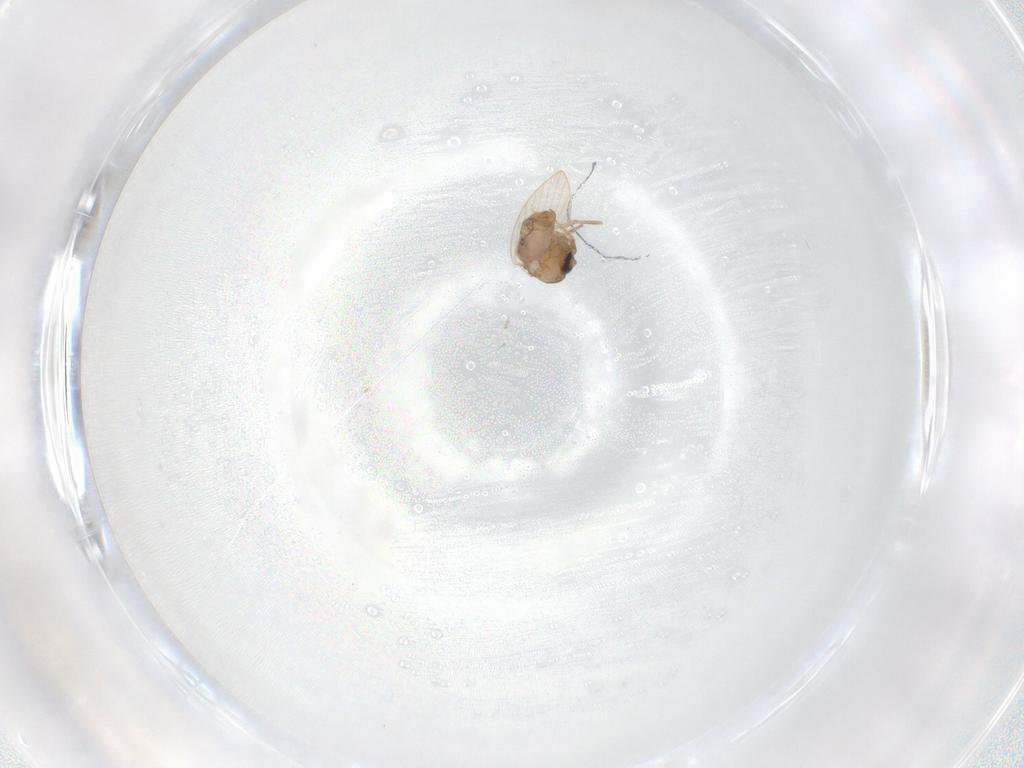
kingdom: Animalia
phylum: Arthropoda
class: Insecta
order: Diptera
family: Psychodidae
